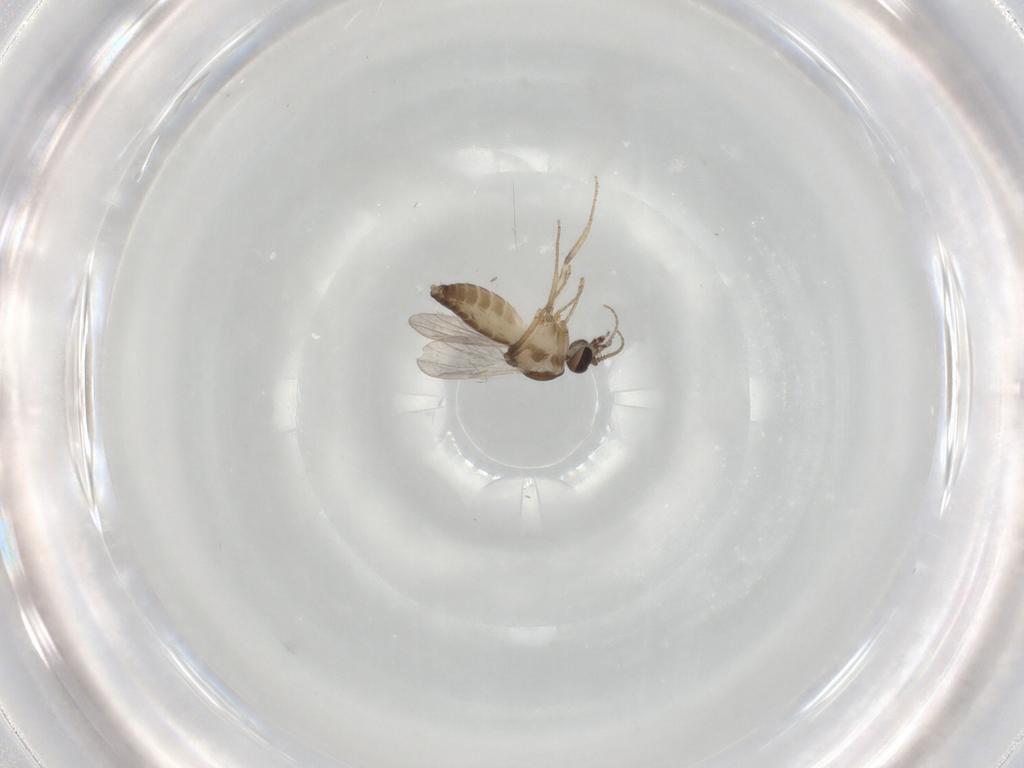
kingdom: Animalia
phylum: Arthropoda
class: Insecta
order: Diptera
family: Ceratopogonidae
